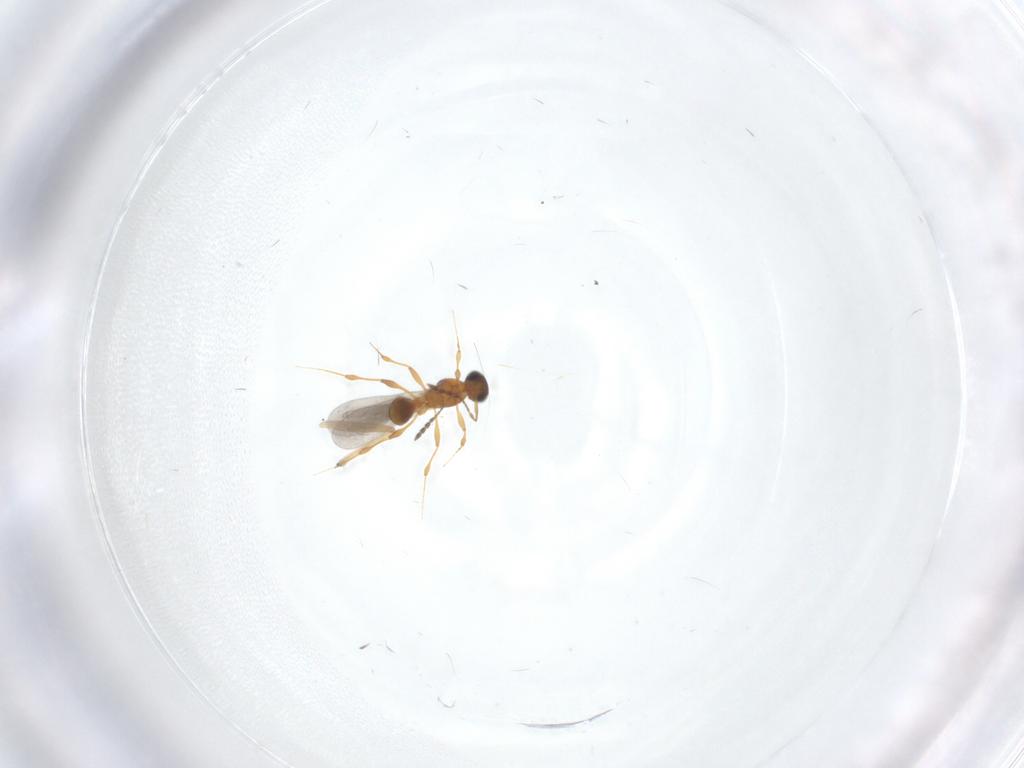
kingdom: Animalia
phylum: Arthropoda
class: Insecta
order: Hymenoptera
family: Platygastridae
